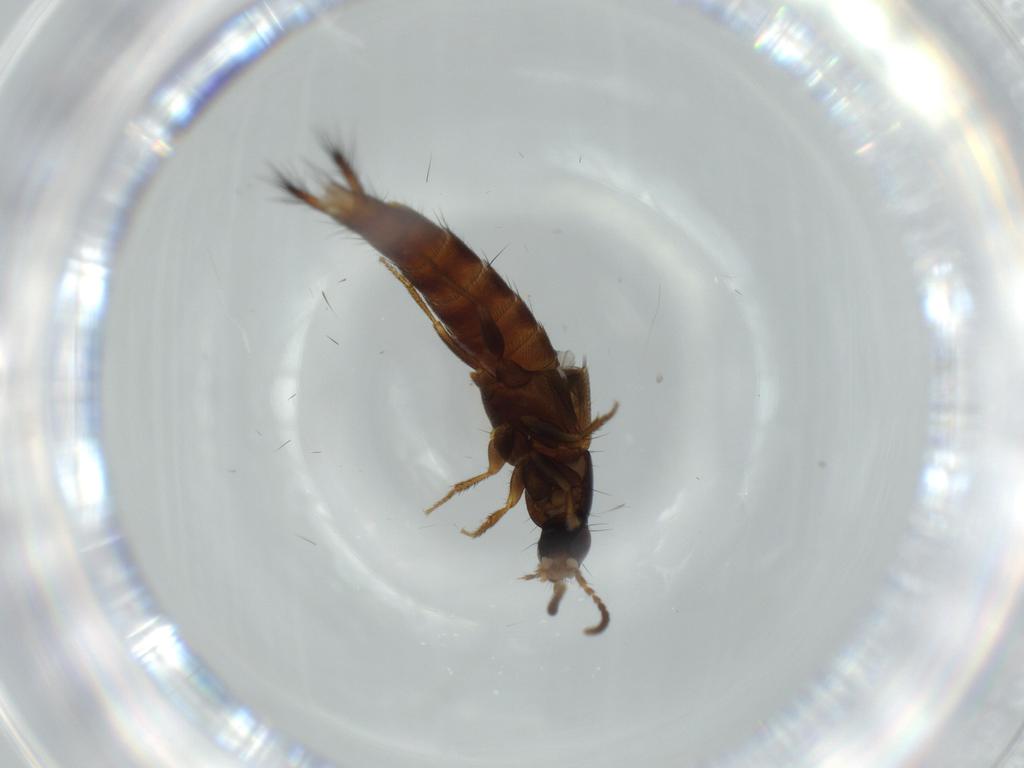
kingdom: Animalia
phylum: Arthropoda
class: Insecta
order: Coleoptera
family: Staphylinidae
